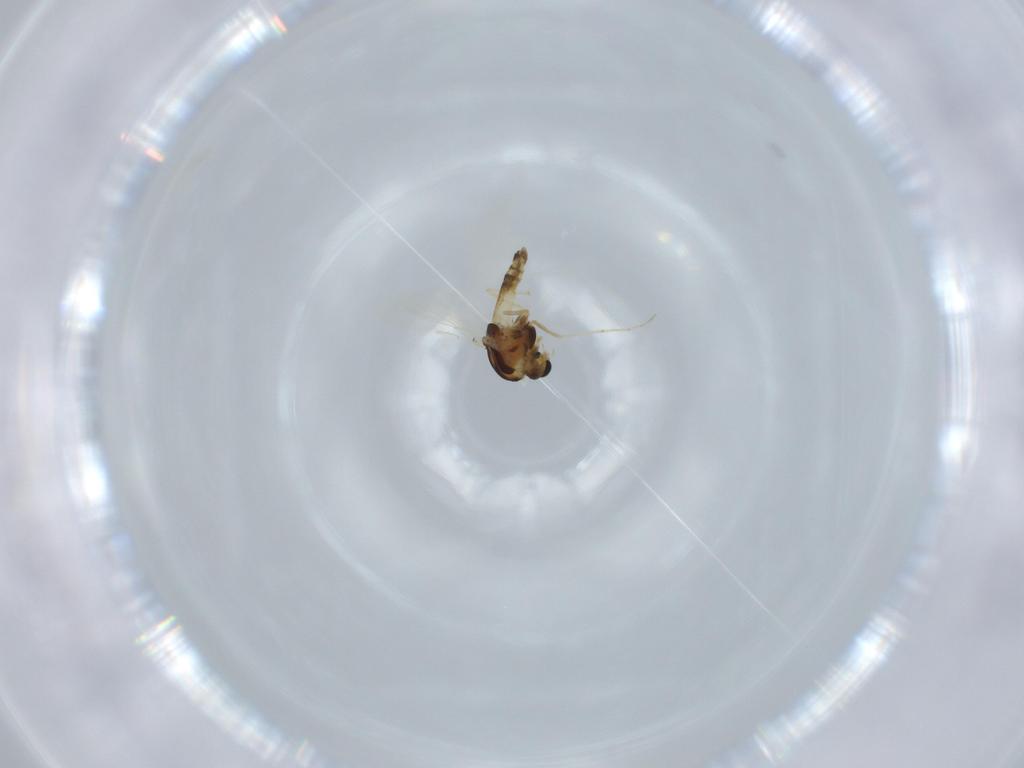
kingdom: Animalia
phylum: Arthropoda
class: Insecta
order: Diptera
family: Chironomidae
